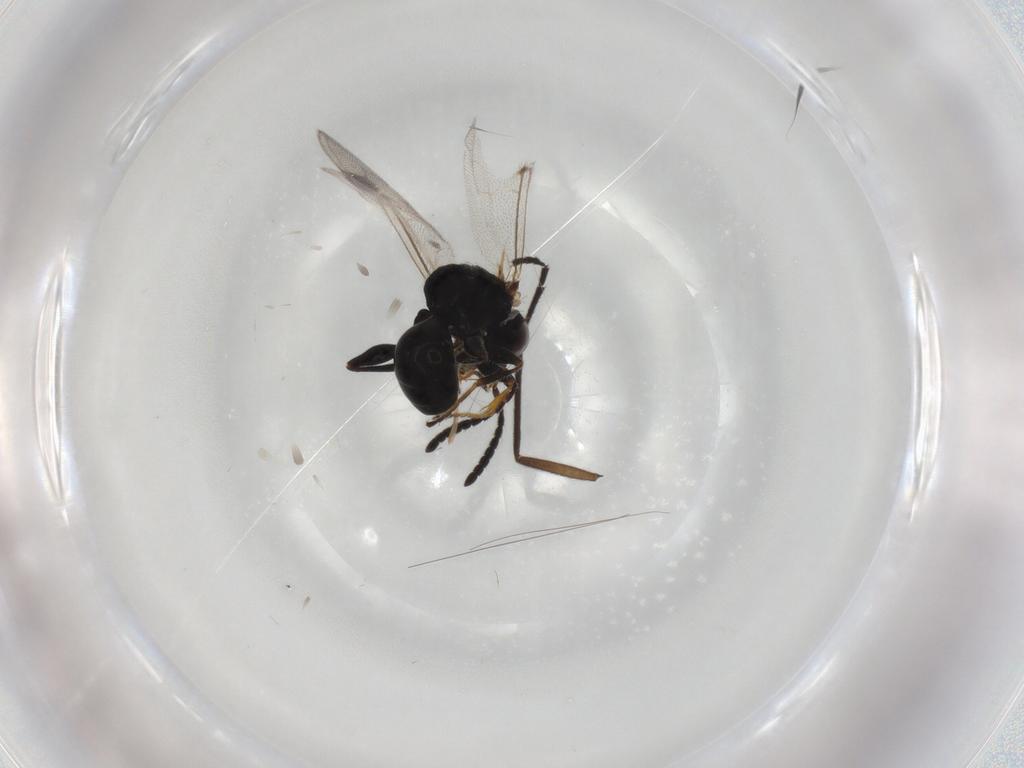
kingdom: Animalia
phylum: Arthropoda
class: Insecta
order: Hymenoptera
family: Dryinidae
